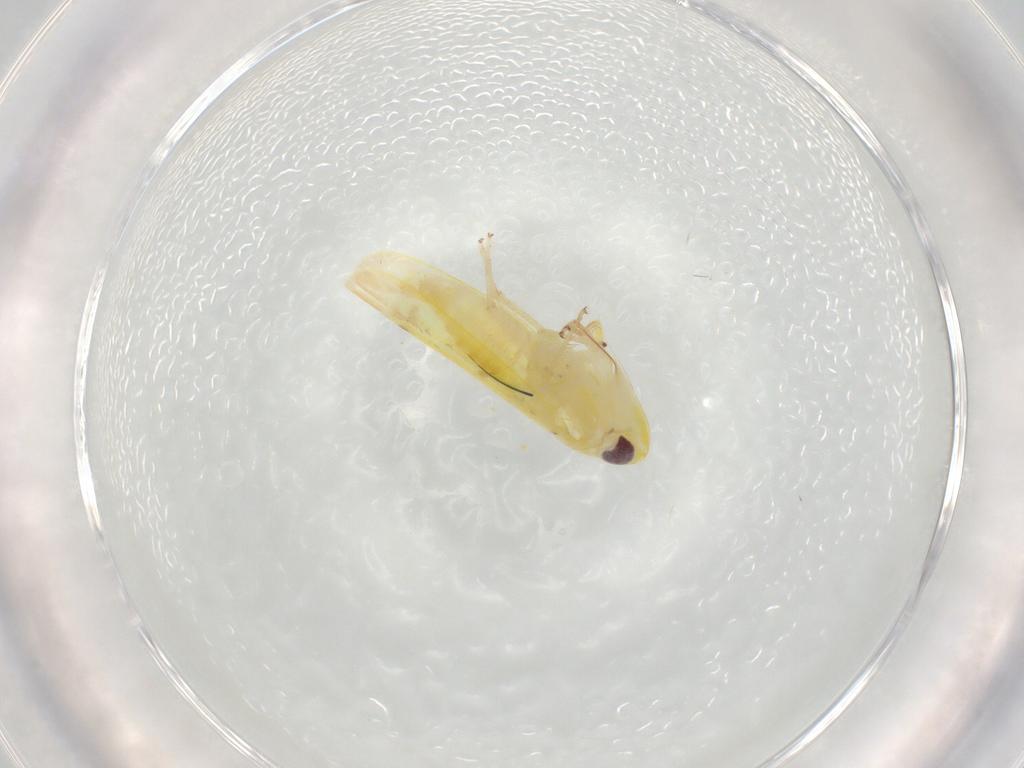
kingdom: Animalia
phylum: Arthropoda
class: Insecta
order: Hemiptera
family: Cicadellidae
